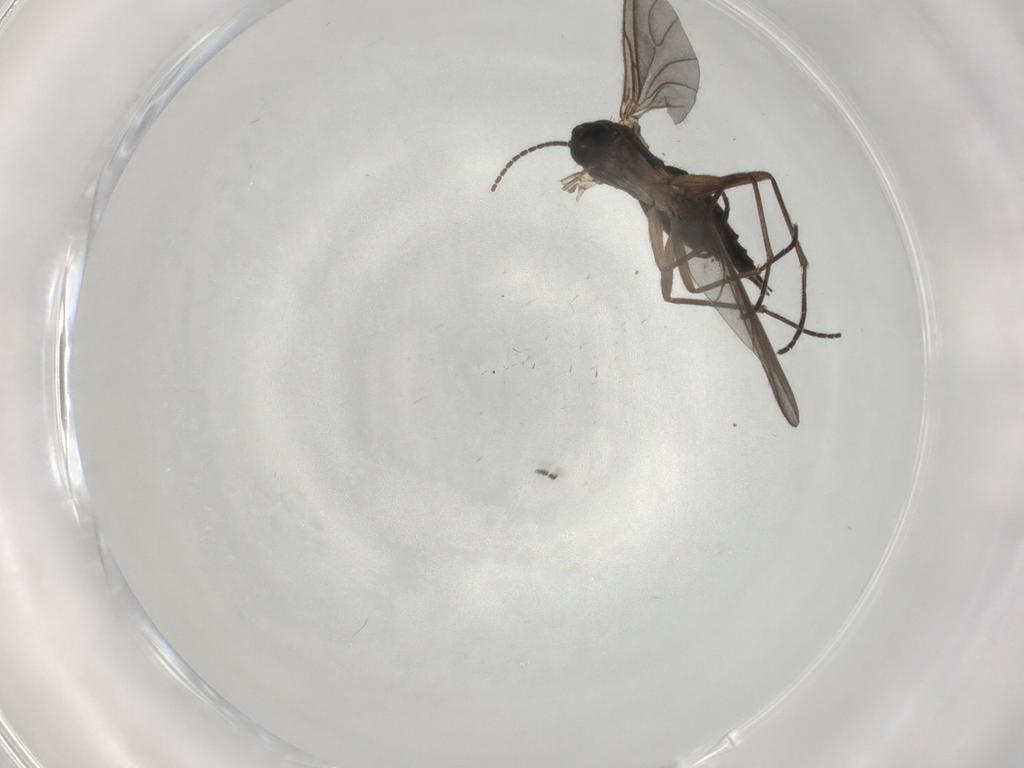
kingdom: Animalia
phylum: Arthropoda
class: Insecta
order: Diptera
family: Sciaridae
